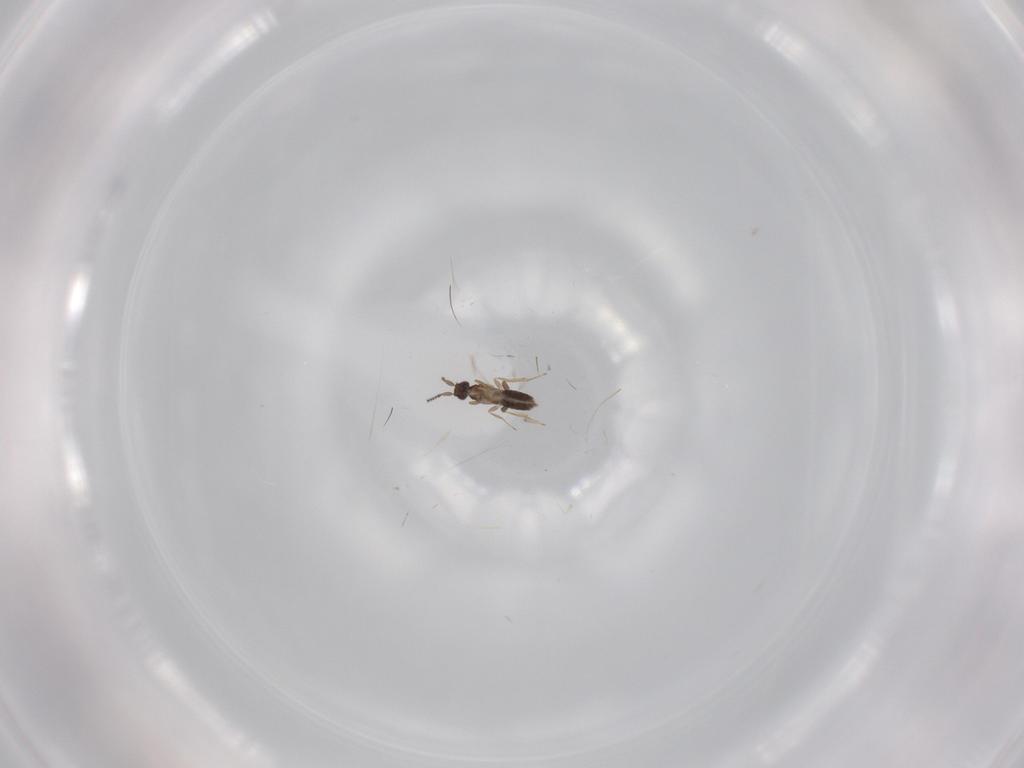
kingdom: Animalia
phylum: Arthropoda
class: Insecta
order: Hymenoptera
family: Mymaridae
